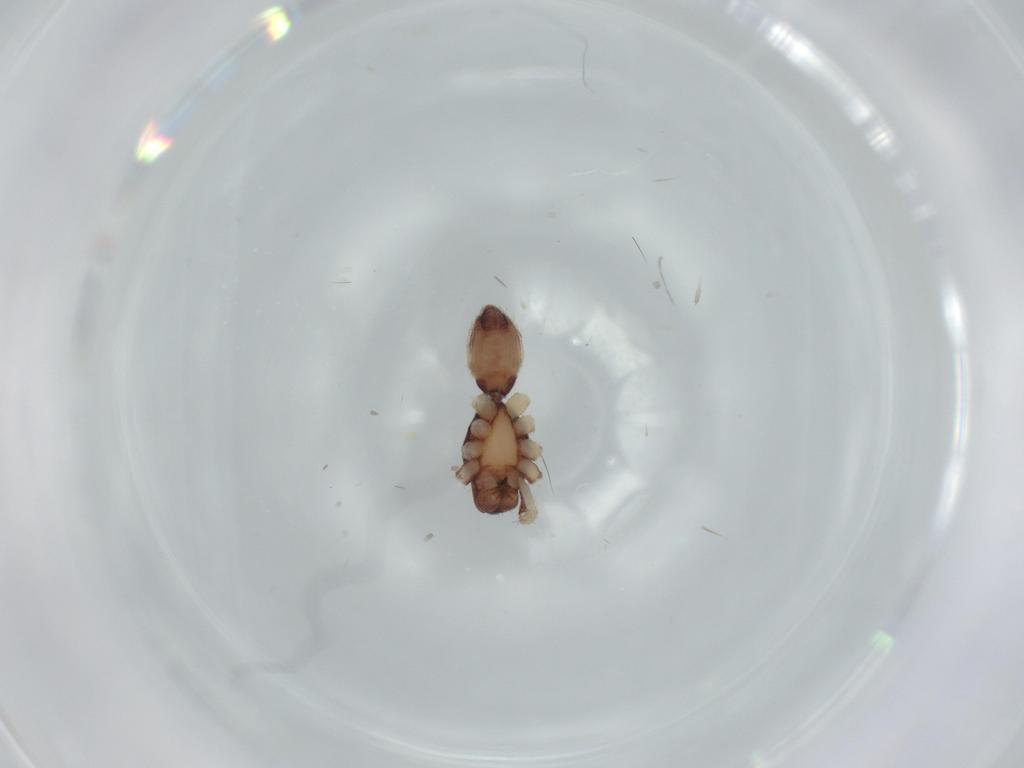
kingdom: Animalia
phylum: Arthropoda
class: Arachnida
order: Araneae
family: Corinnidae
